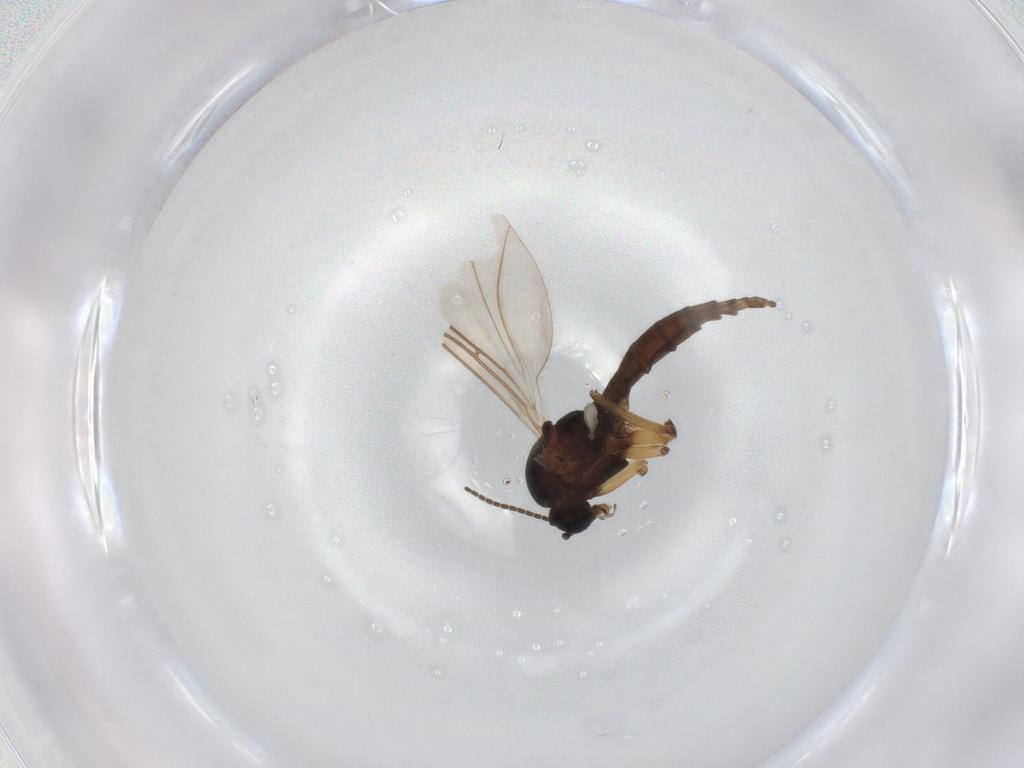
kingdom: Animalia
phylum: Arthropoda
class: Insecta
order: Diptera
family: Sciaridae
